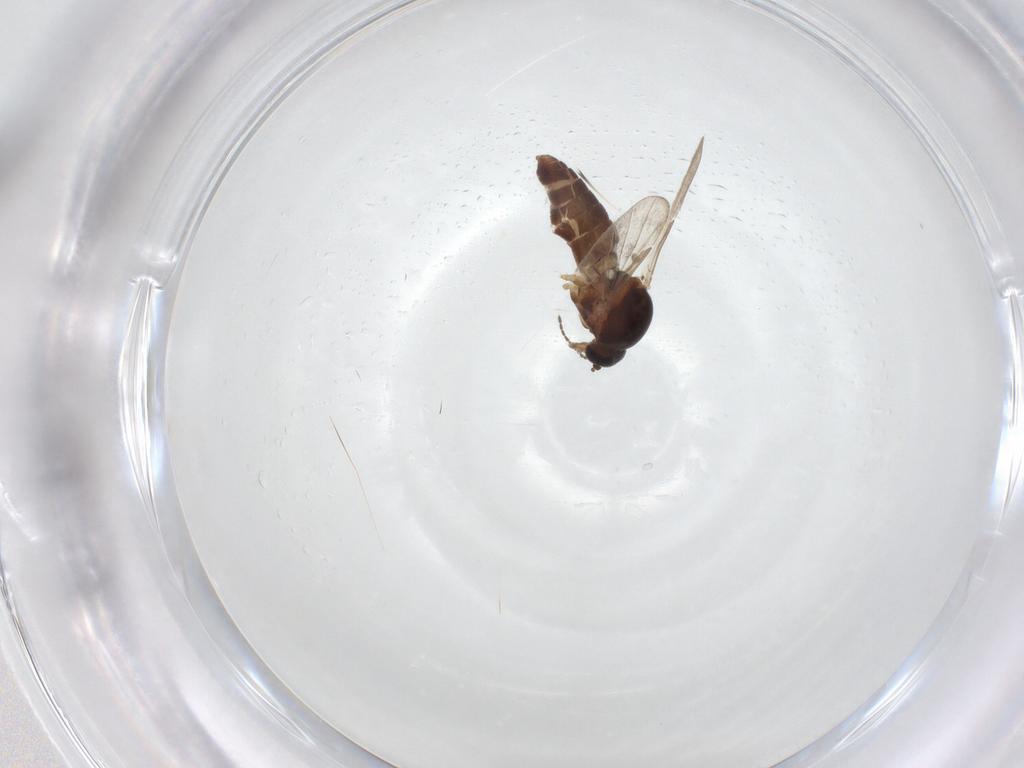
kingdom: Animalia
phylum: Arthropoda
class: Insecta
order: Diptera
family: Ceratopogonidae
